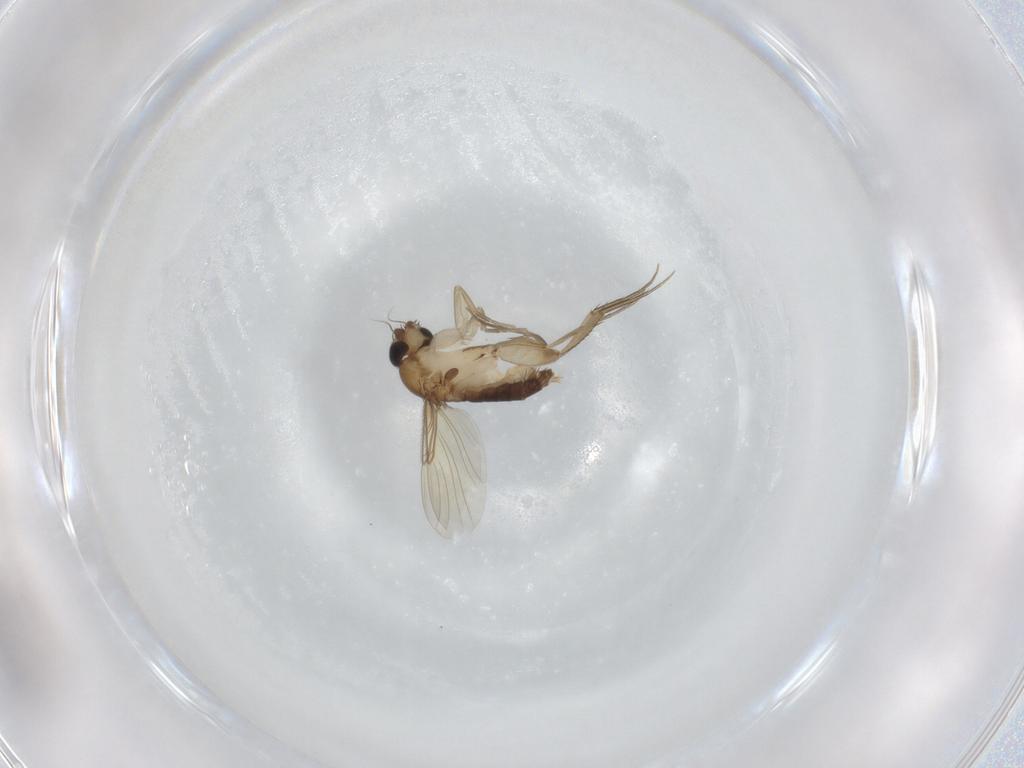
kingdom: Animalia
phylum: Arthropoda
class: Insecta
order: Diptera
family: Phoridae
